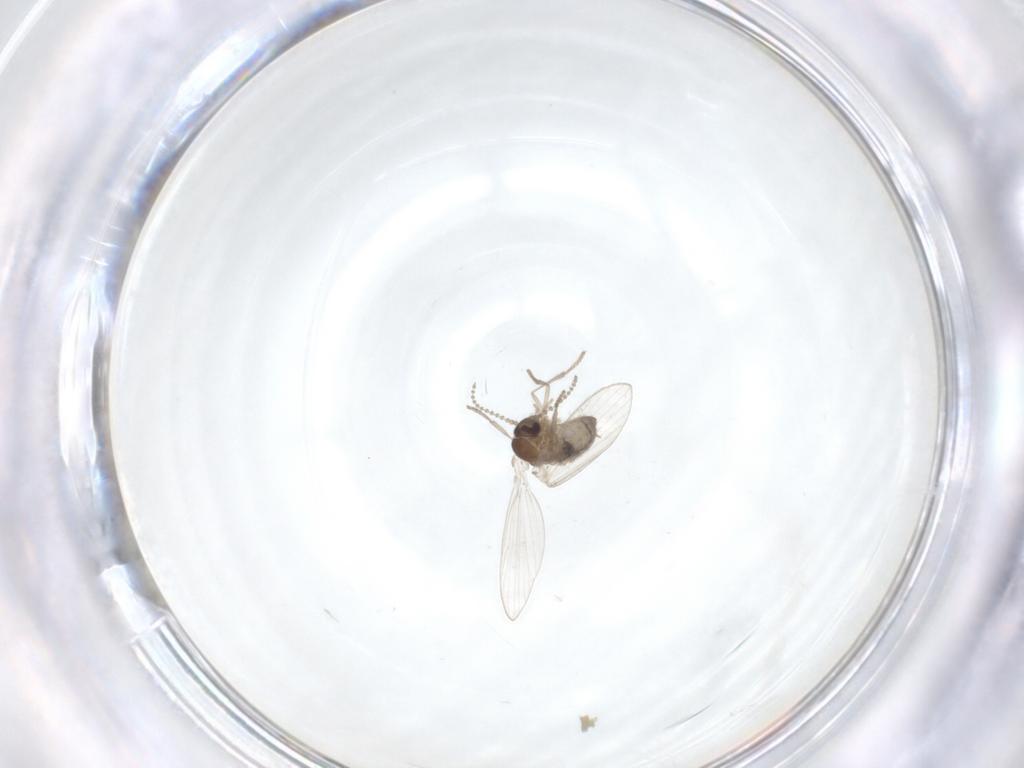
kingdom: Animalia
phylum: Arthropoda
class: Insecta
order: Diptera
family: Psychodidae
